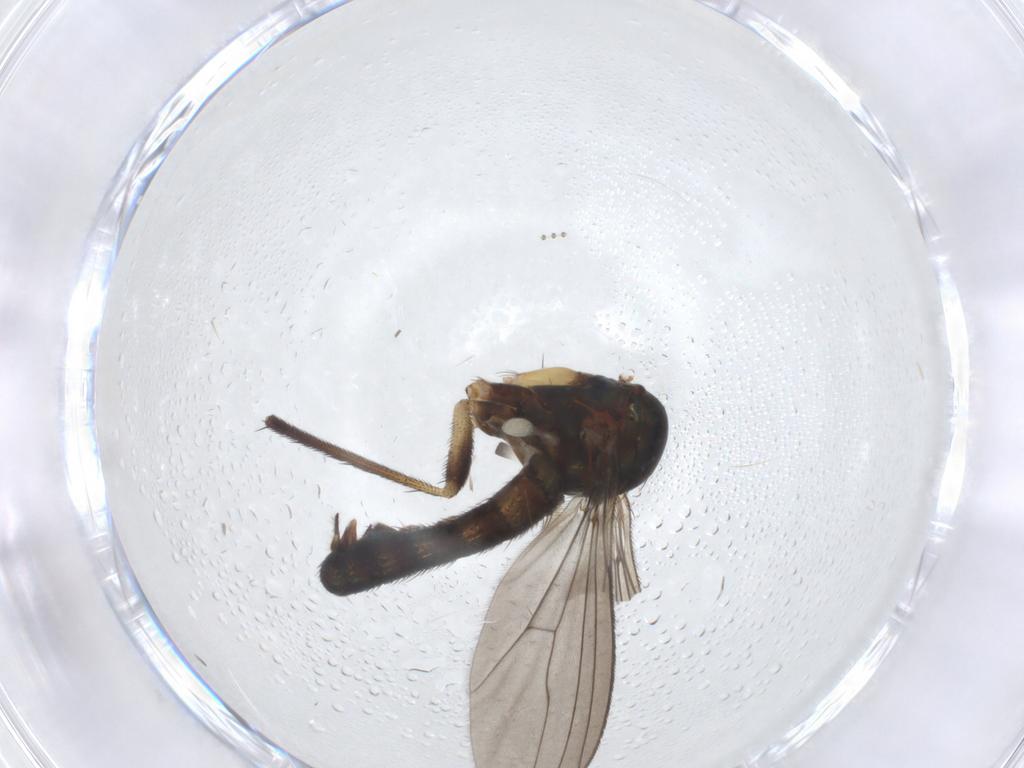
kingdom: Animalia
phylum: Arthropoda
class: Insecta
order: Diptera
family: Dolichopodidae
